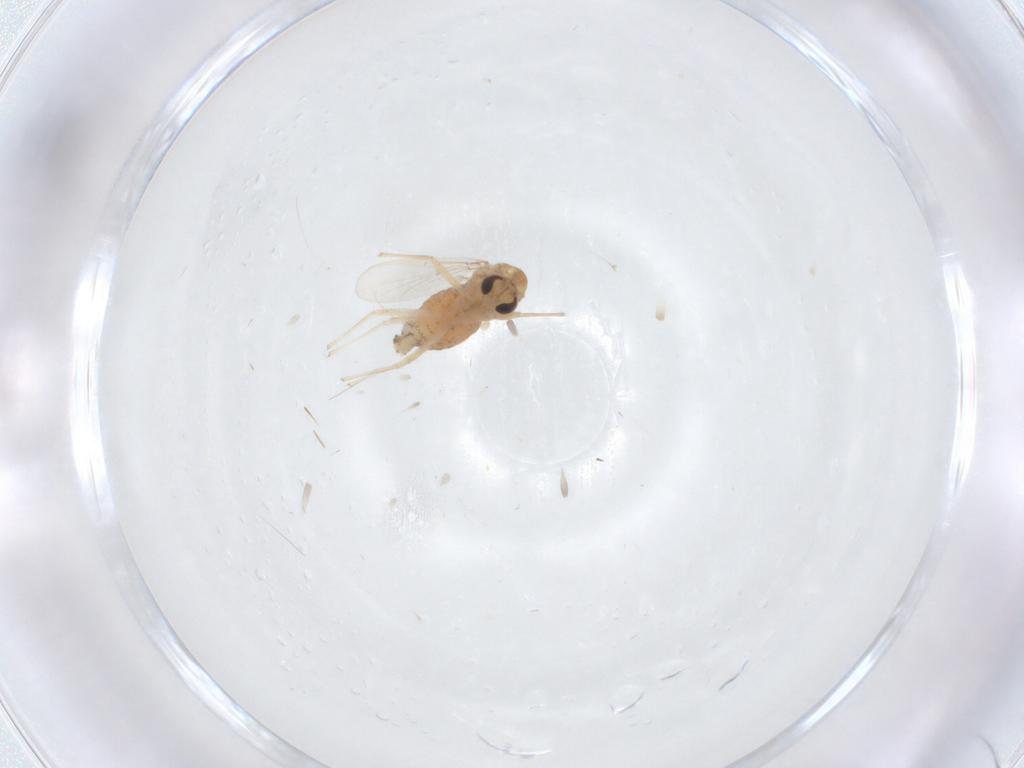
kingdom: Animalia
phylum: Arthropoda
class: Insecta
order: Diptera
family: Chironomidae
